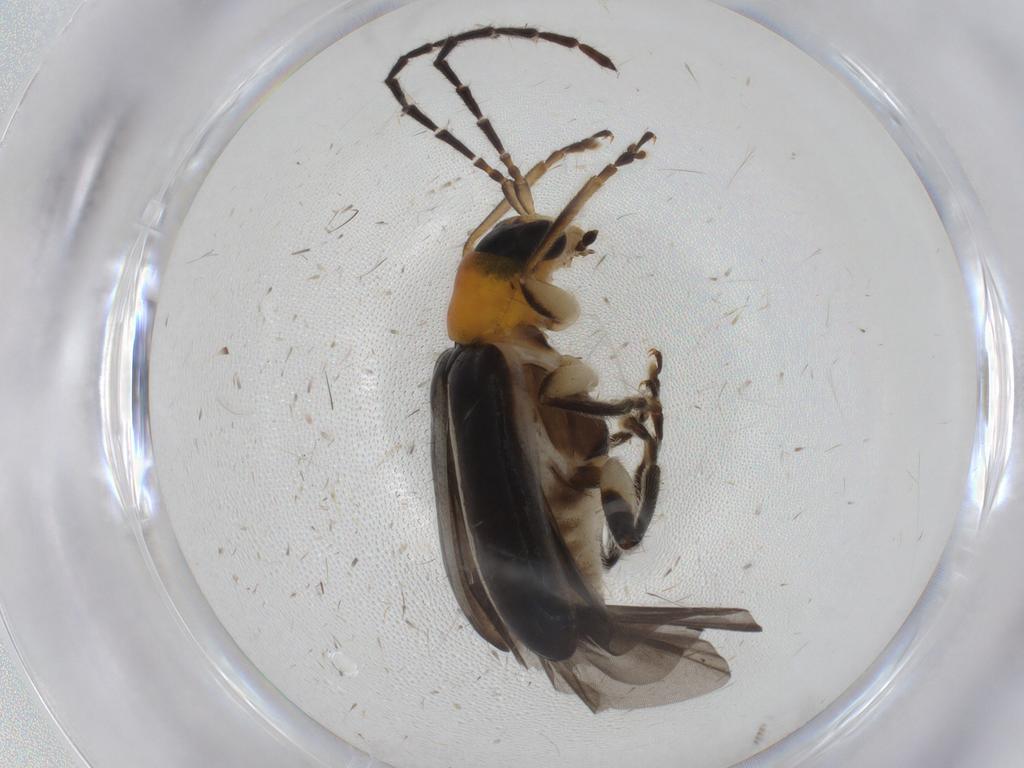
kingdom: Animalia
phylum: Arthropoda
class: Insecta
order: Coleoptera
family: Chrysomelidae
